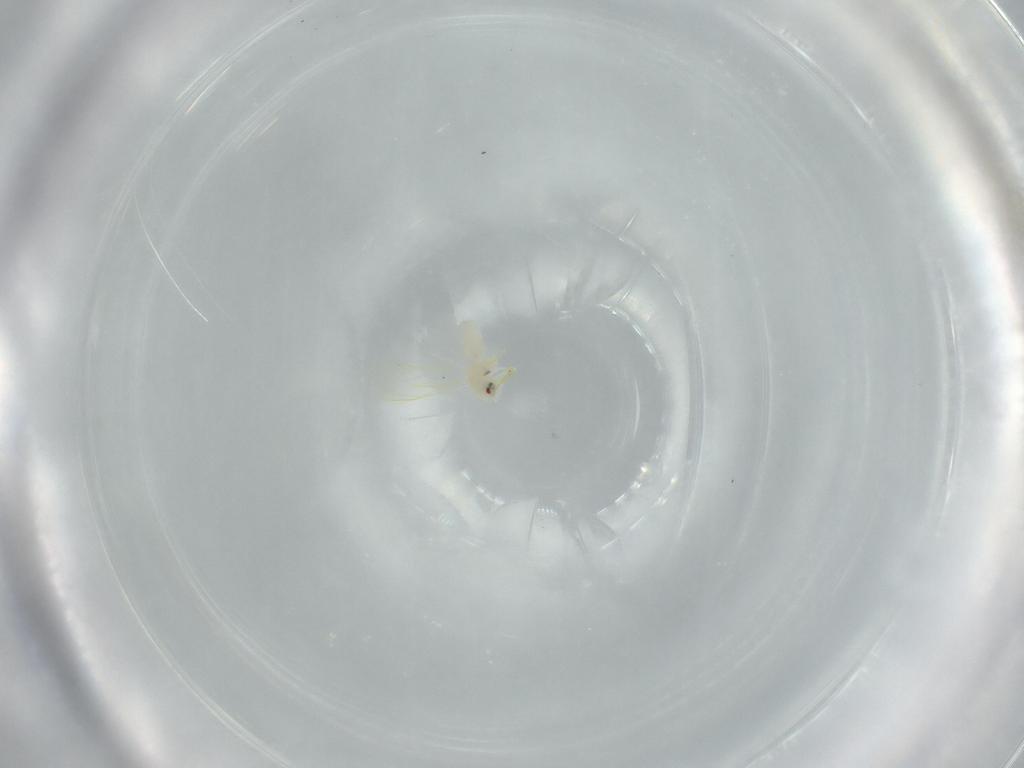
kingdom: Animalia
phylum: Arthropoda
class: Insecta
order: Hemiptera
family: Aleyrodidae
